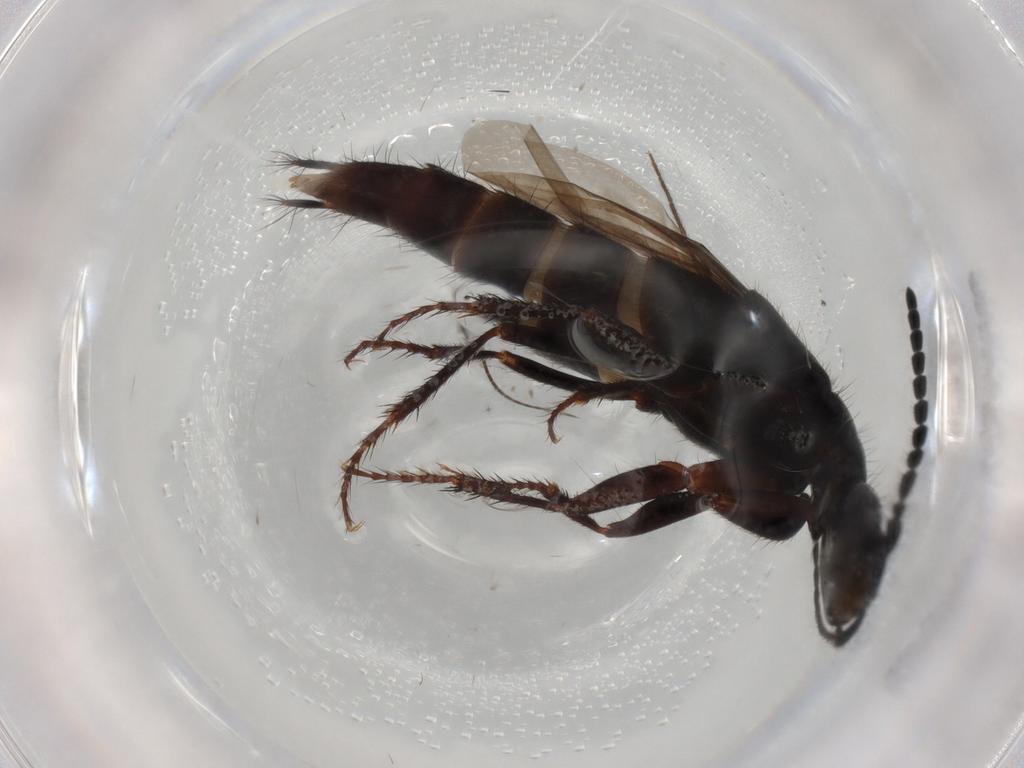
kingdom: Animalia
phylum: Arthropoda
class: Insecta
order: Coleoptera
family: Staphylinidae
